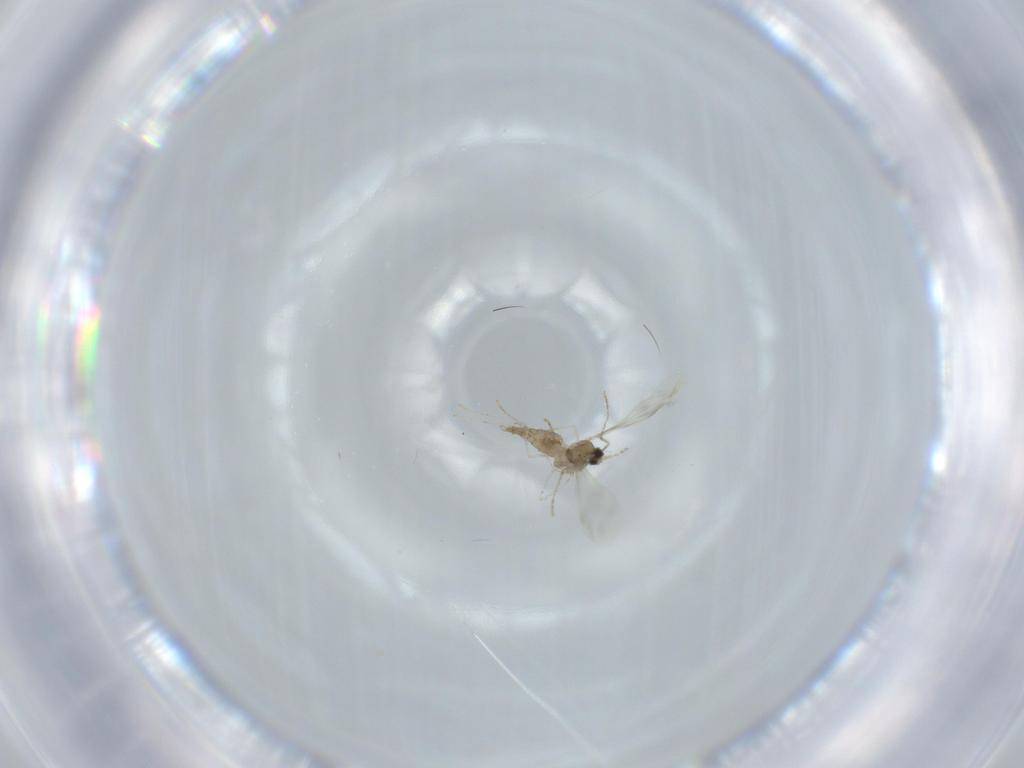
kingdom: Animalia
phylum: Arthropoda
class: Insecta
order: Diptera
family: Cecidomyiidae
